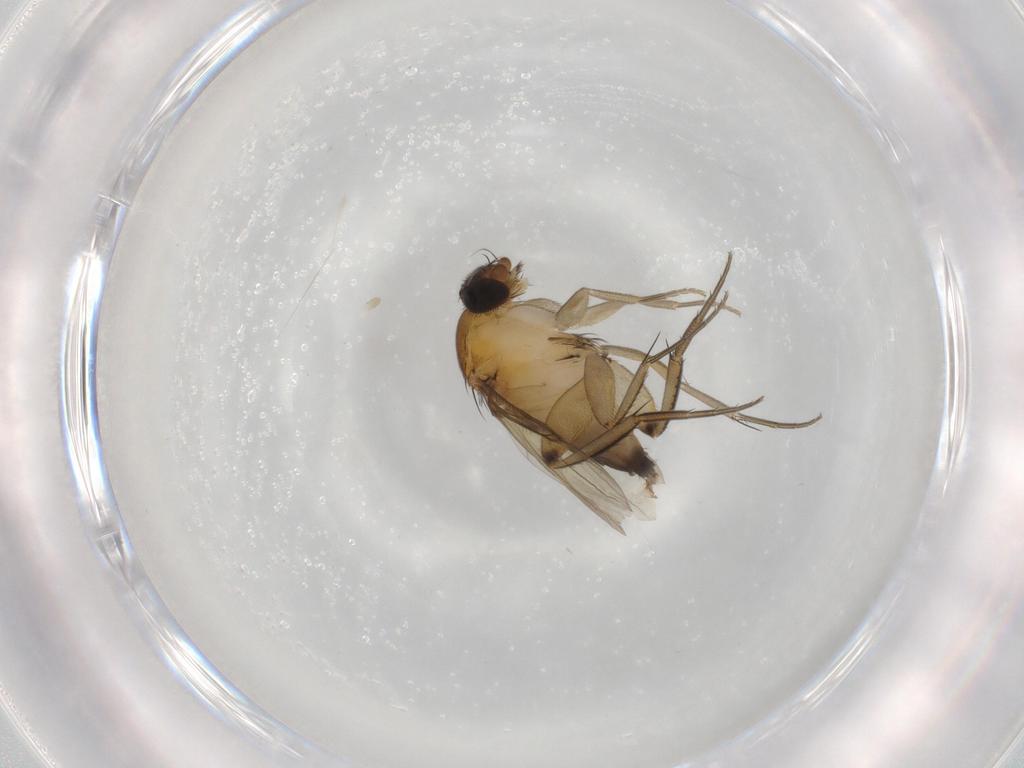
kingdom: Animalia
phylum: Arthropoda
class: Insecta
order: Diptera
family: Phoridae
